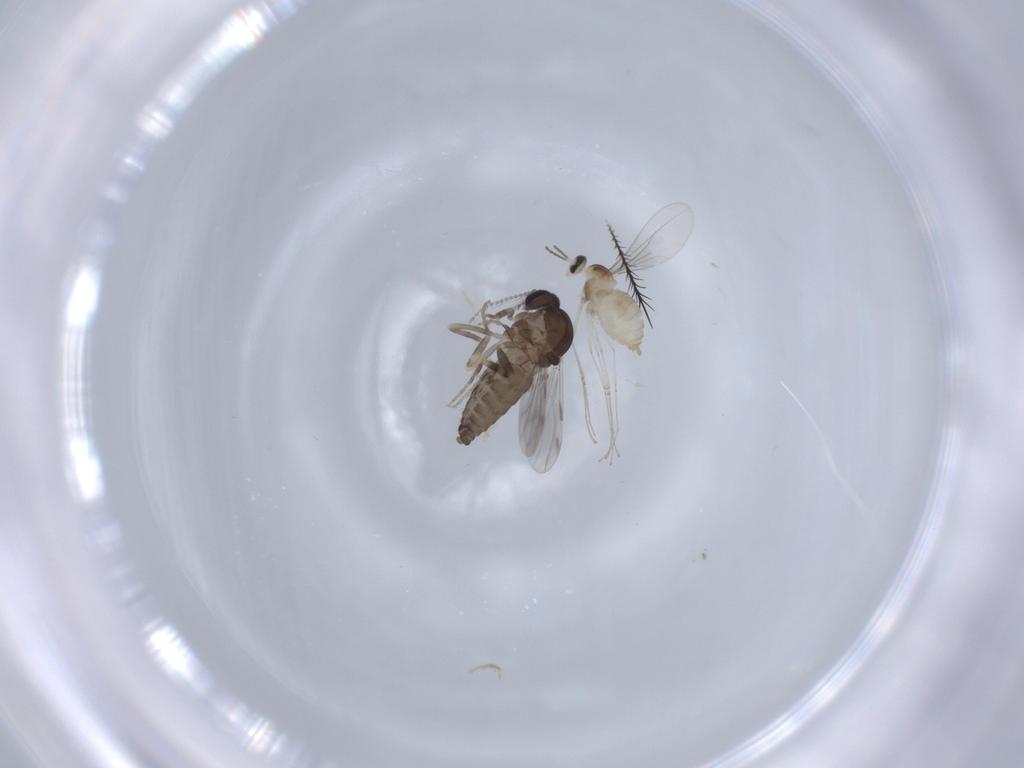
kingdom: Animalia
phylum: Arthropoda
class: Insecta
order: Diptera
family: Ceratopogonidae
